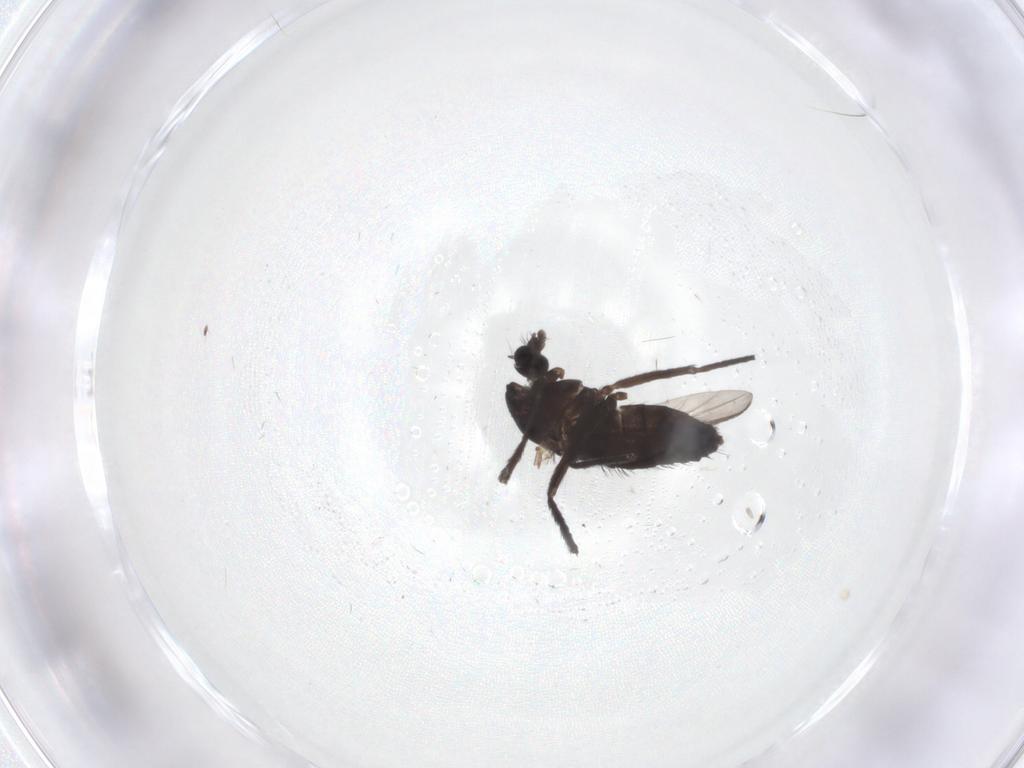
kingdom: Animalia
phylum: Arthropoda
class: Insecta
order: Diptera
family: Chironomidae
